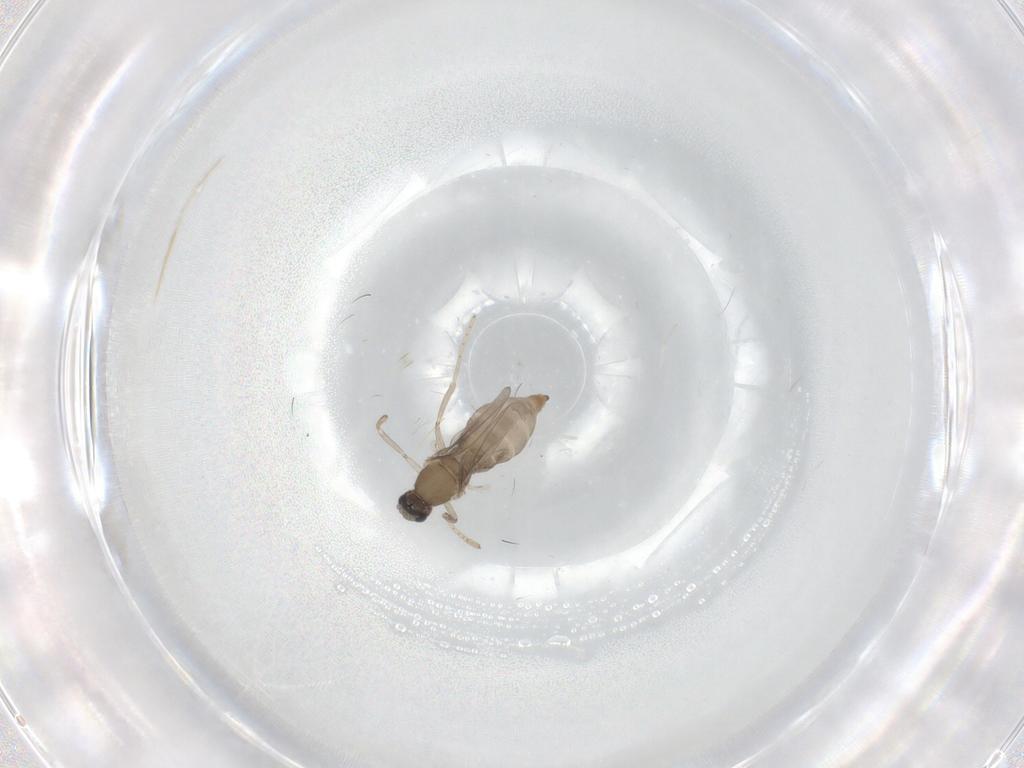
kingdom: Animalia
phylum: Arthropoda
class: Insecta
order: Diptera
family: Cecidomyiidae
